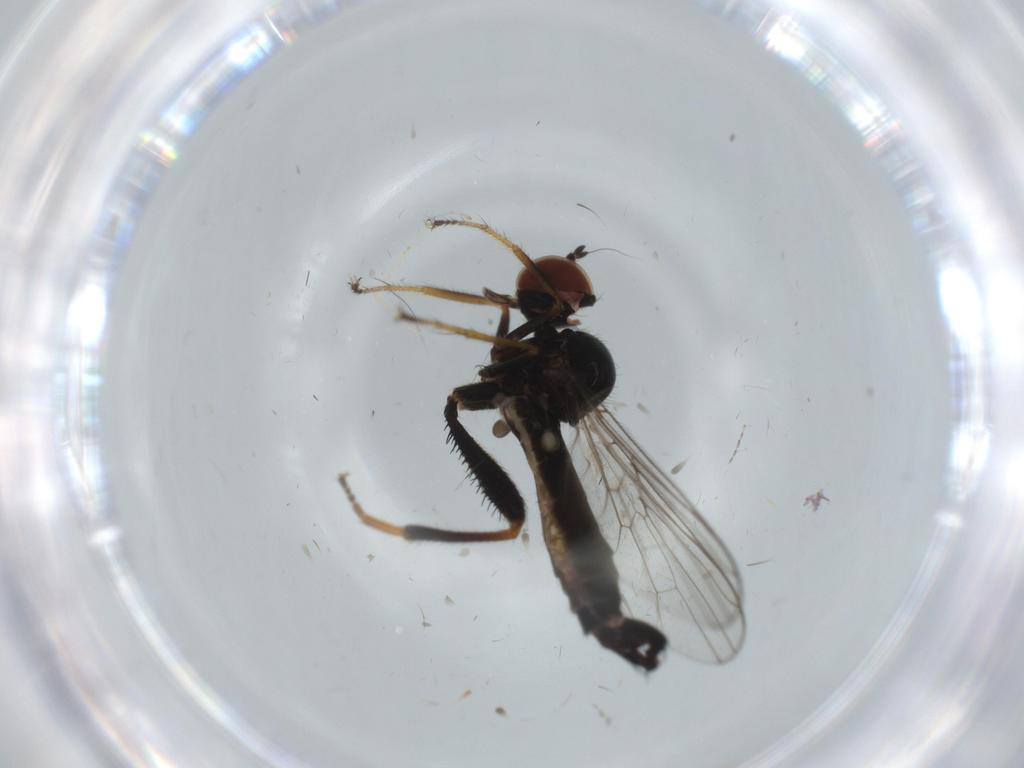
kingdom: Animalia
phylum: Arthropoda
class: Insecta
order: Diptera
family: Hybotidae
